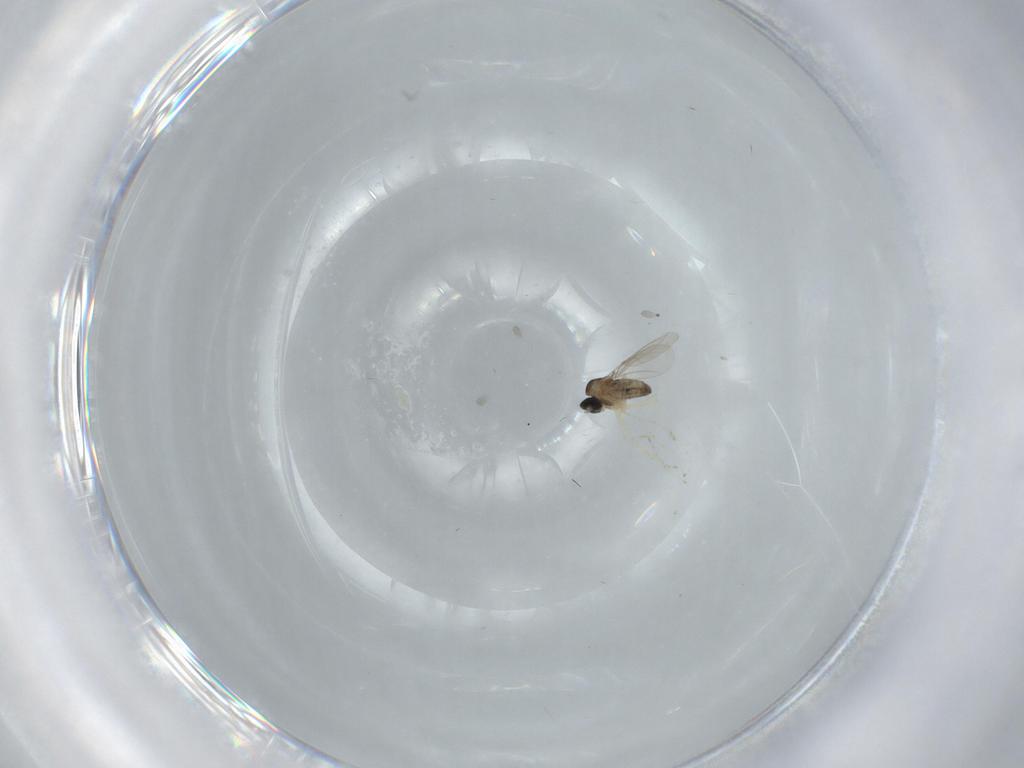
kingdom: Animalia
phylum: Arthropoda
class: Insecta
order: Diptera
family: Cecidomyiidae
